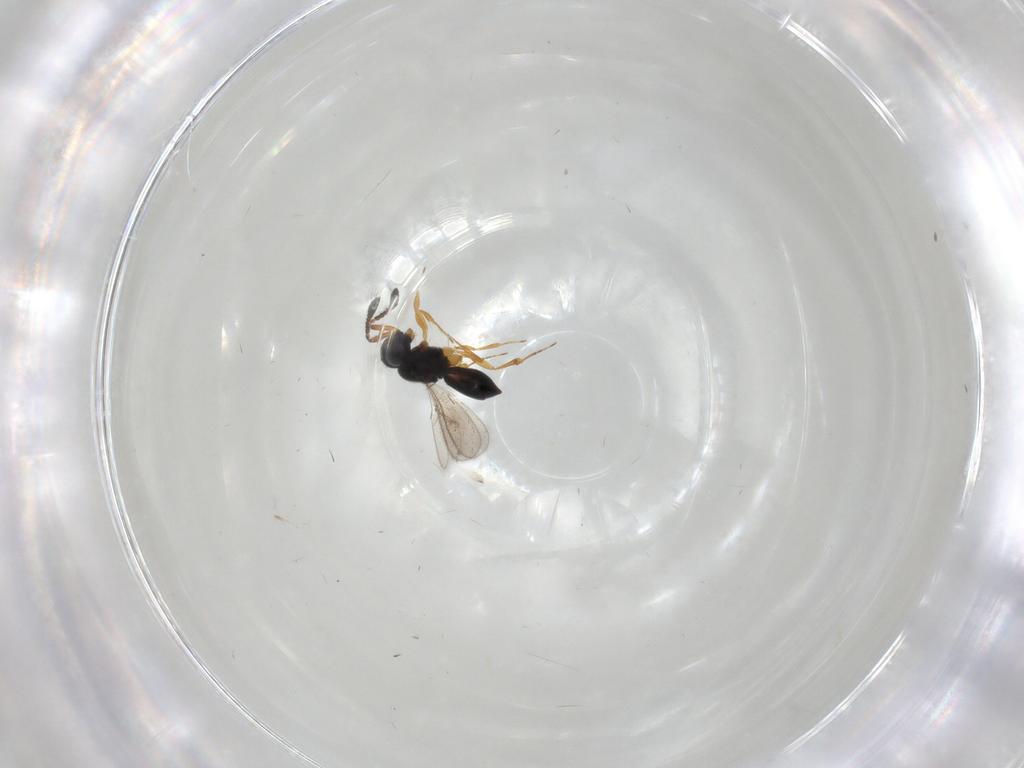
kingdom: Animalia
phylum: Arthropoda
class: Insecta
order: Hymenoptera
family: Scelionidae
